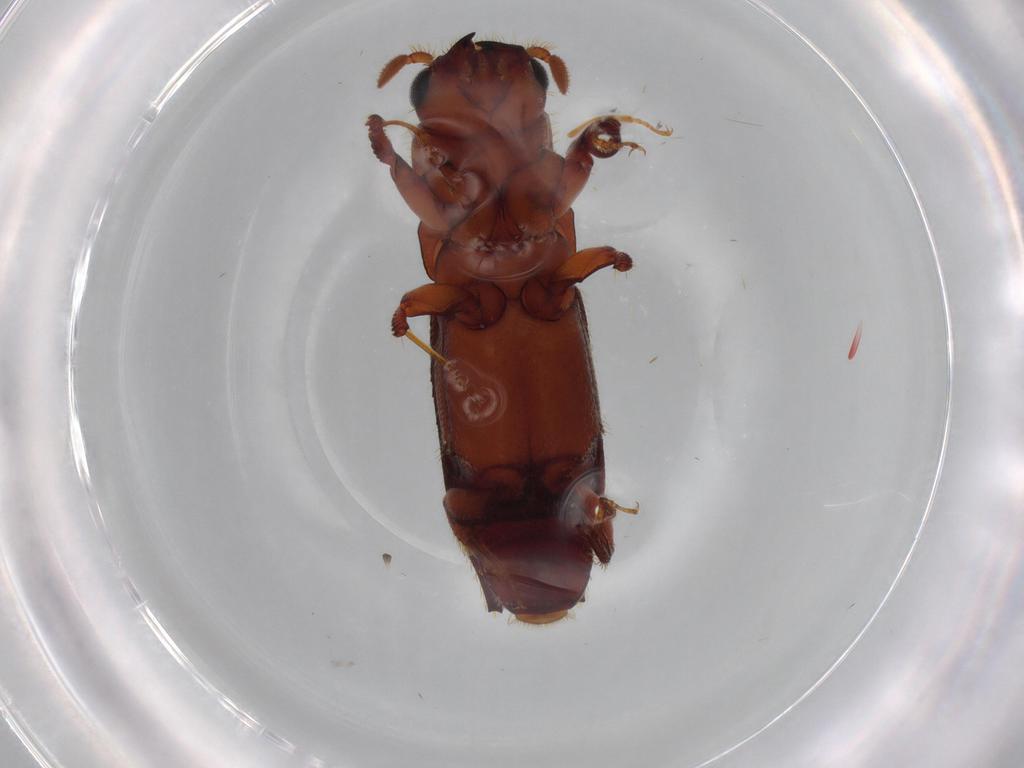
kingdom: Animalia
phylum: Arthropoda
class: Insecta
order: Coleoptera
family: Curculionidae
